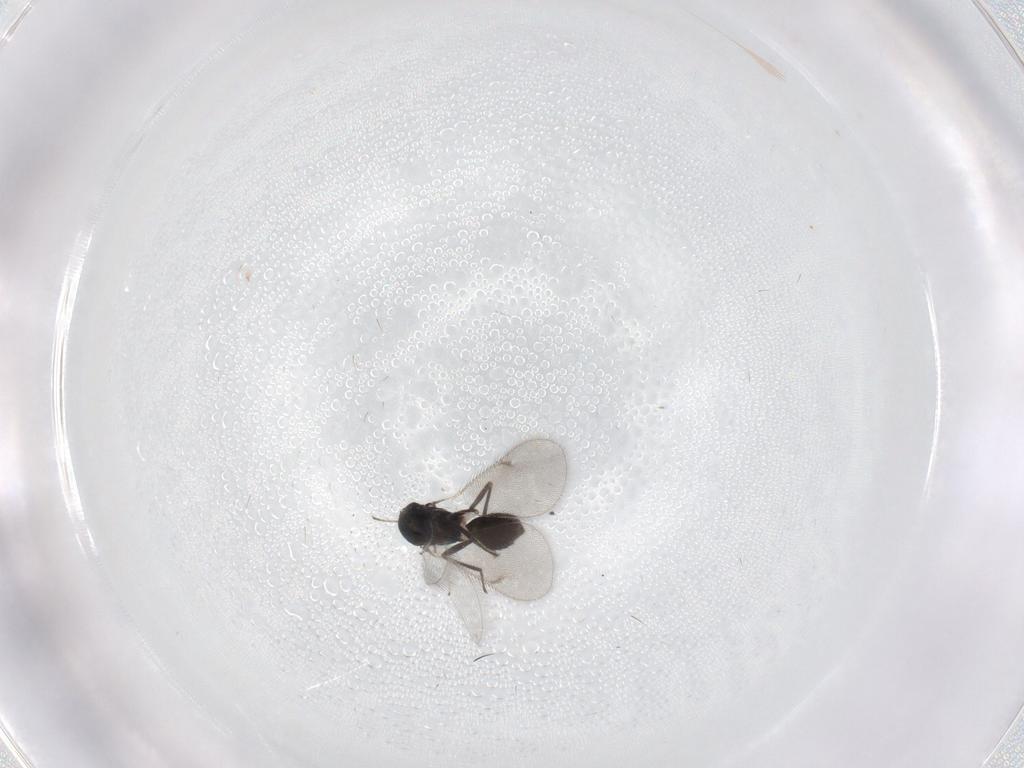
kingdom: Animalia
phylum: Arthropoda
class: Insecta
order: Hymenoptera
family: Eulophidae
